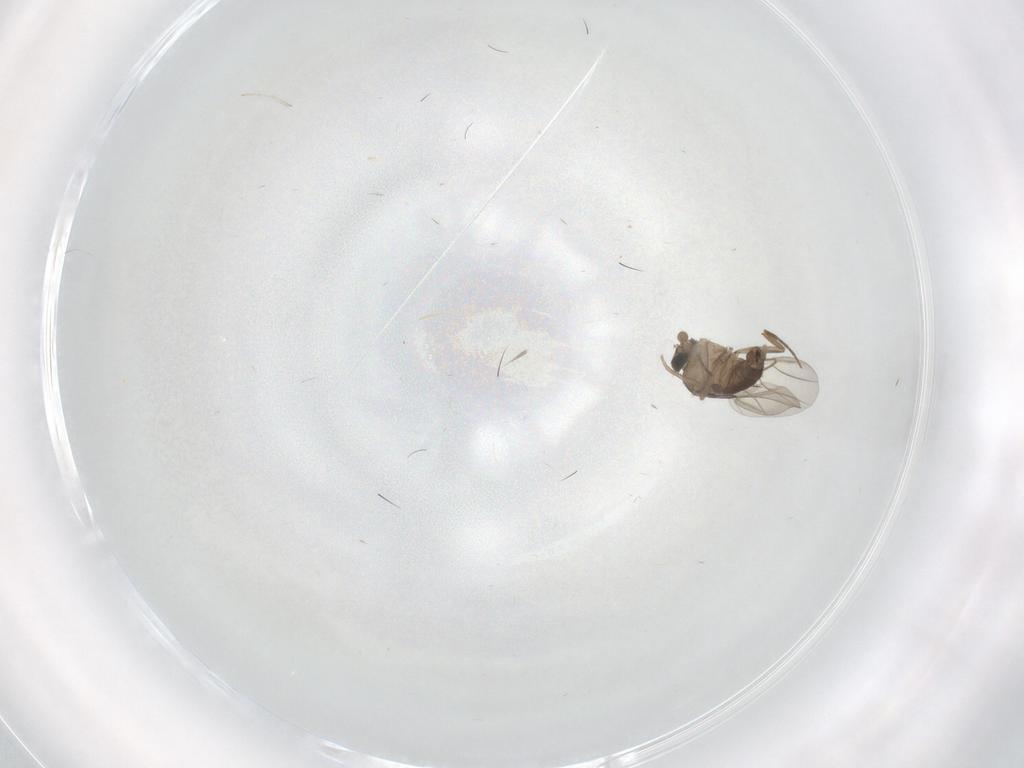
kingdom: Animalia
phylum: Arthropoda
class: Insecta
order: Diptera
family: Phoridae
